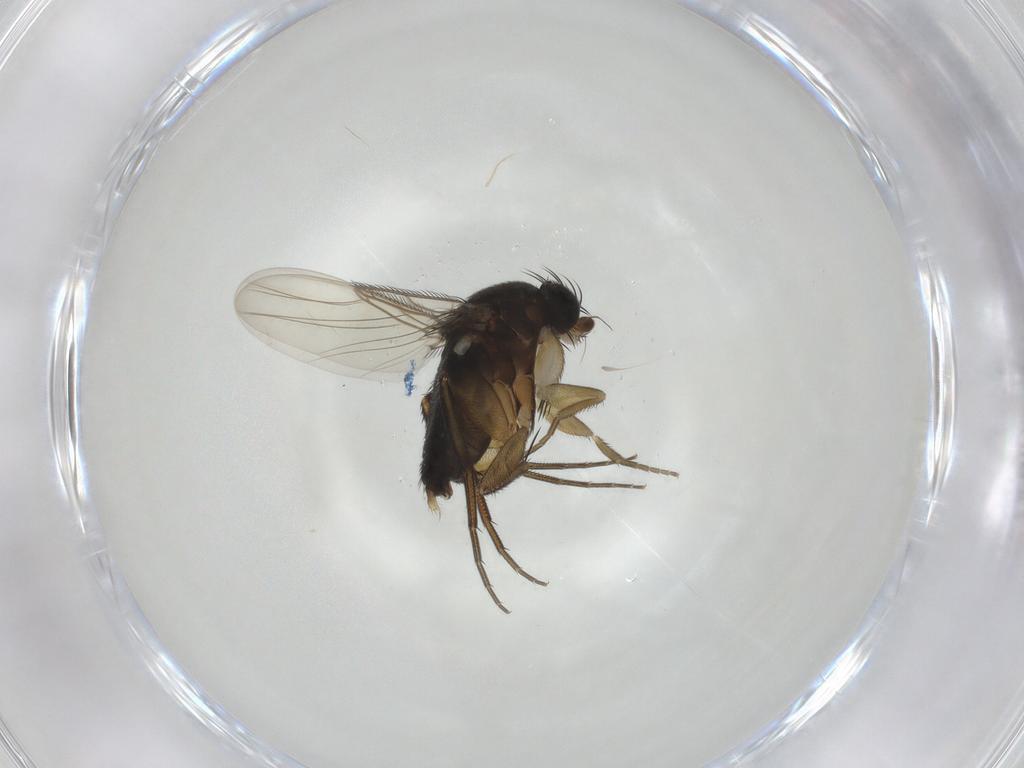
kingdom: Animalia
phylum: Arthropoda
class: Insecta
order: Diptera
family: Phoridae
